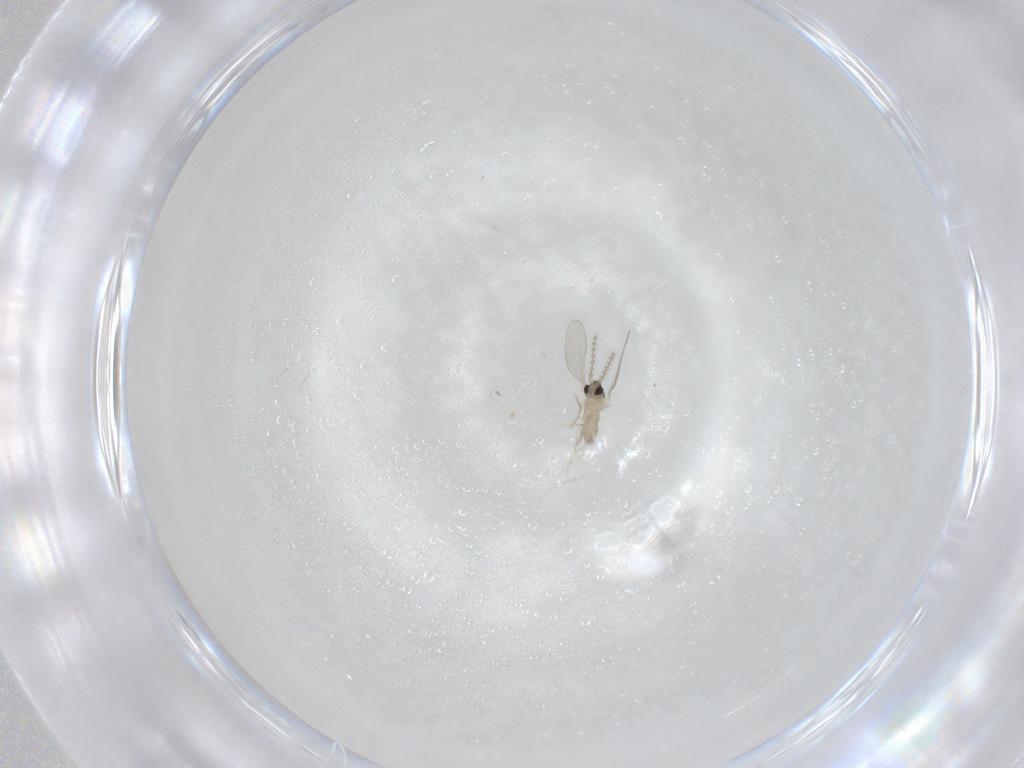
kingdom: Animalia
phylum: Arthropoda
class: Insecta
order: Diptera
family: Cecidomyiidae
